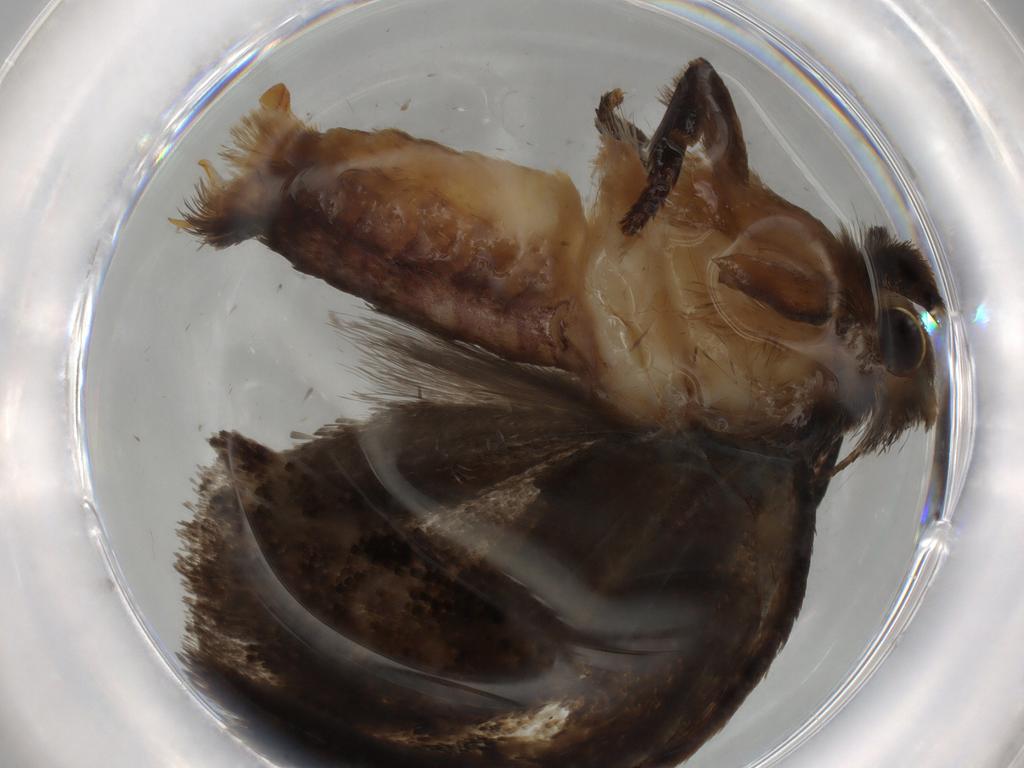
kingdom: Animalia
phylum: Arthropoda
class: Insecta
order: Lepidoptera
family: Tineidae
